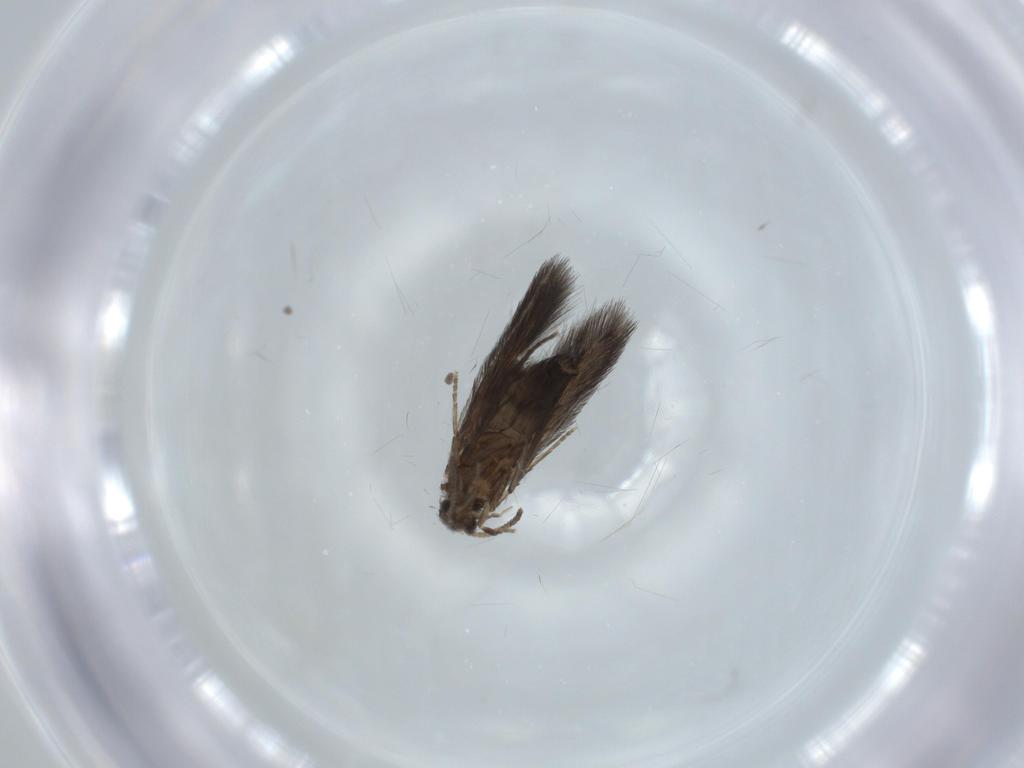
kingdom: Animalia
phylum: Arthropoda
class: Insecta
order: Trichoptera
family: Hydroptilidae
